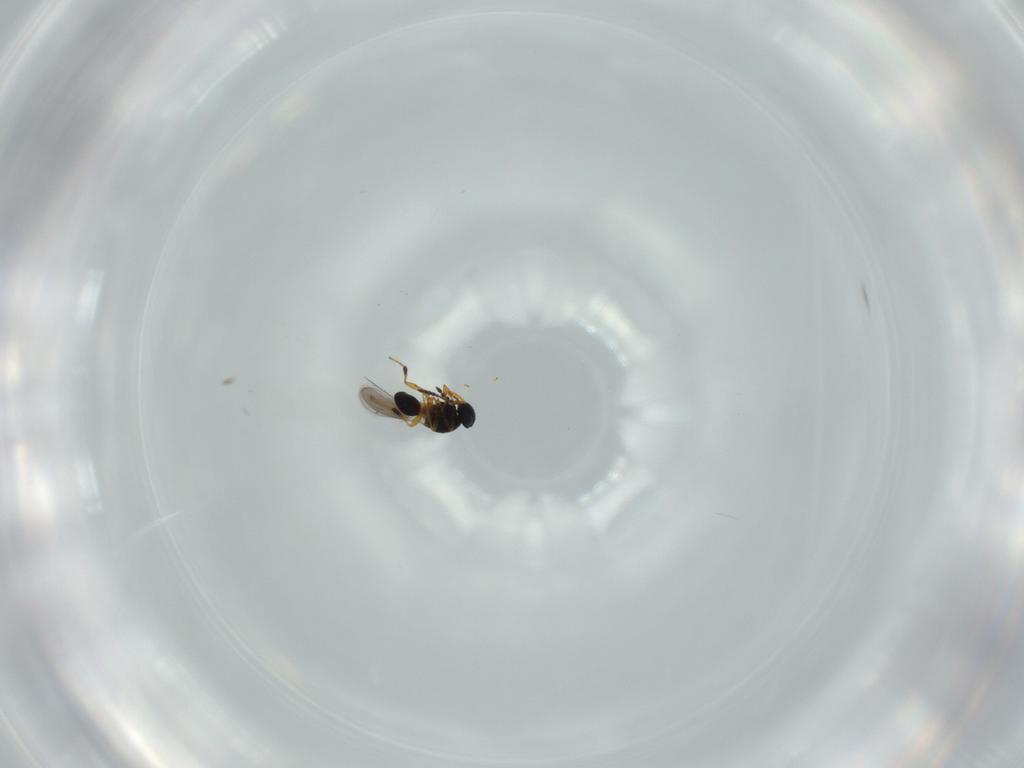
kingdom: Animalia
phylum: Arthropoda
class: Insecta
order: Hymenoptera
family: Platygastridae
